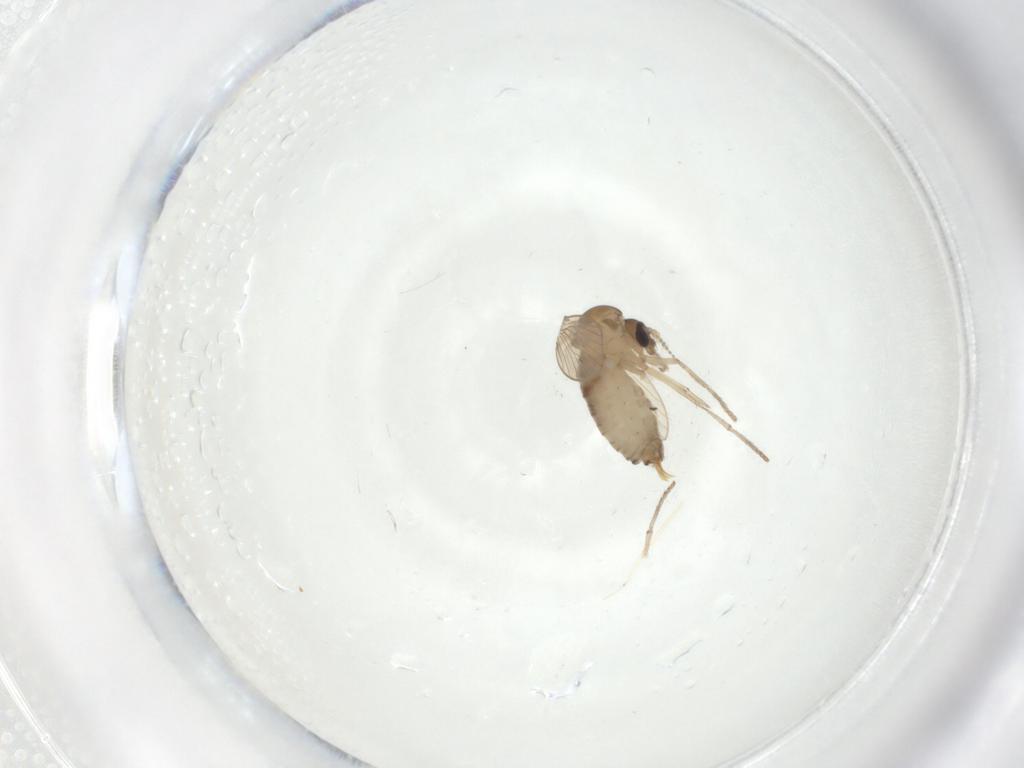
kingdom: Animalia
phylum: Arthropoda
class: Insecta
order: Diptera
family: Psychodidae
